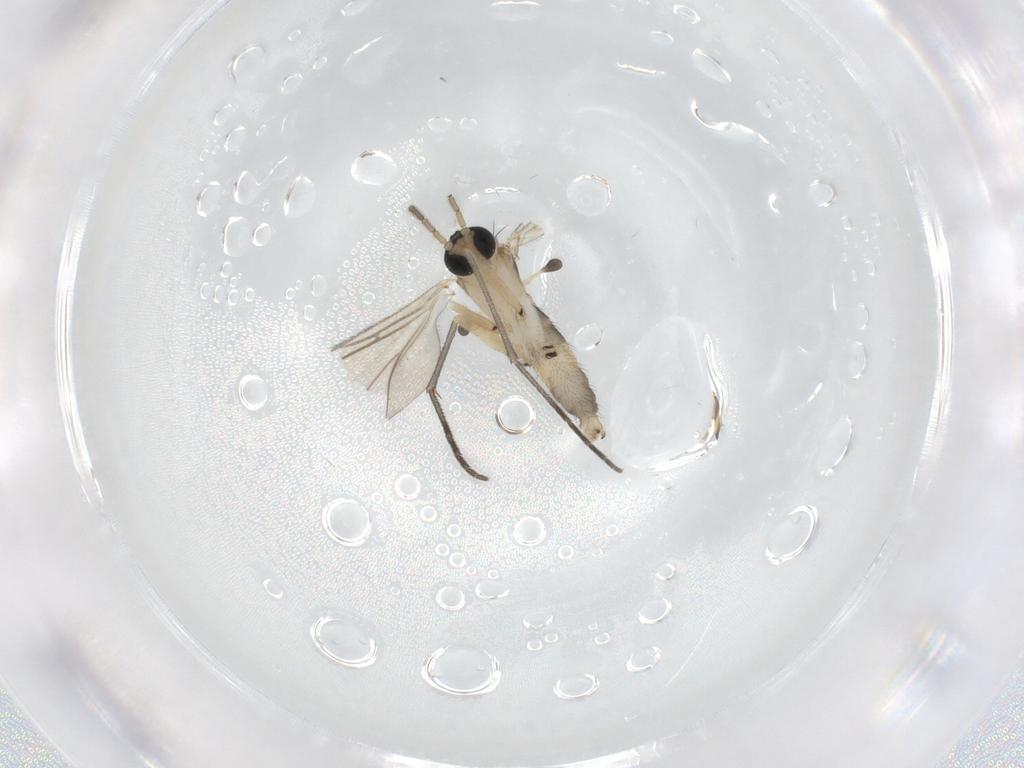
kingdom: Animalia
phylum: Arthropoda
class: Insecta
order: Diptera
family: Sciaridae
